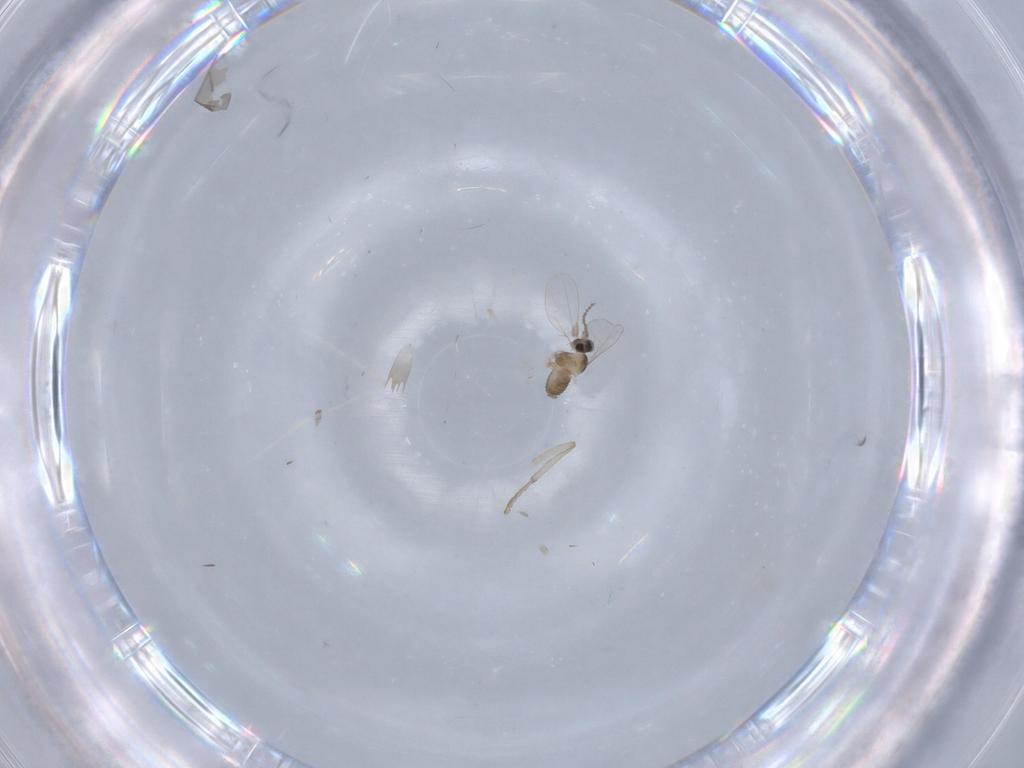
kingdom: Animalia
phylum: Arthropoda
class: Insecta
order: Diptera
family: Cecidomyiidae
